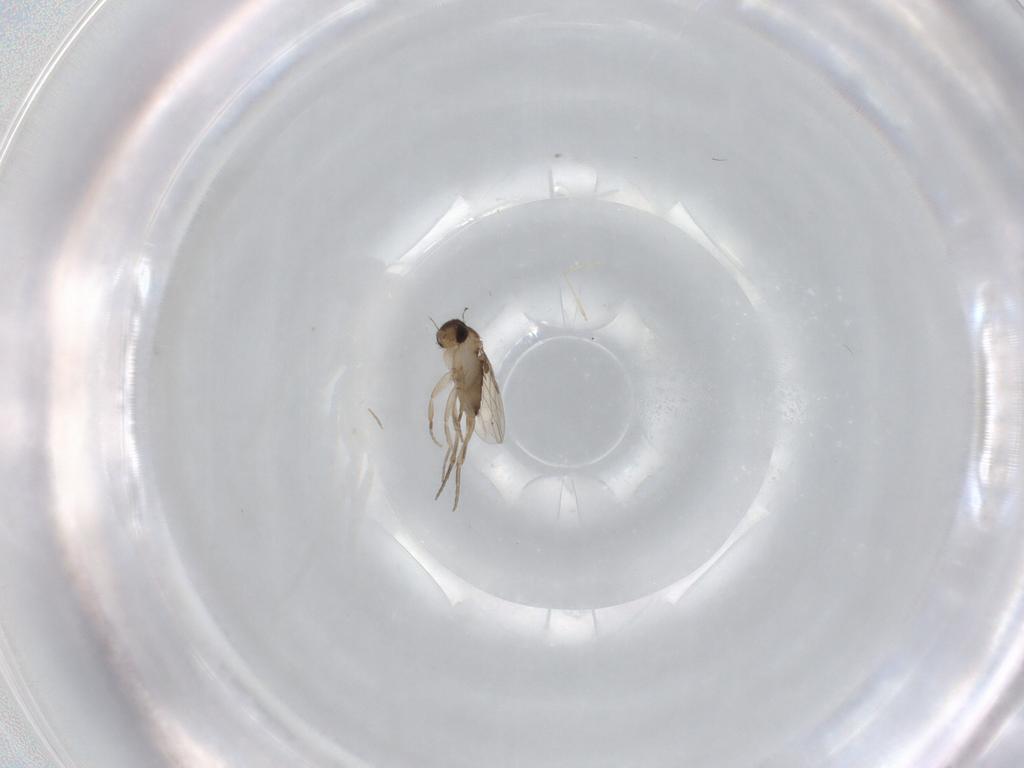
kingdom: Animalia
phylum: Arthropoda
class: Insecta
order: Diptera
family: Phoridae
